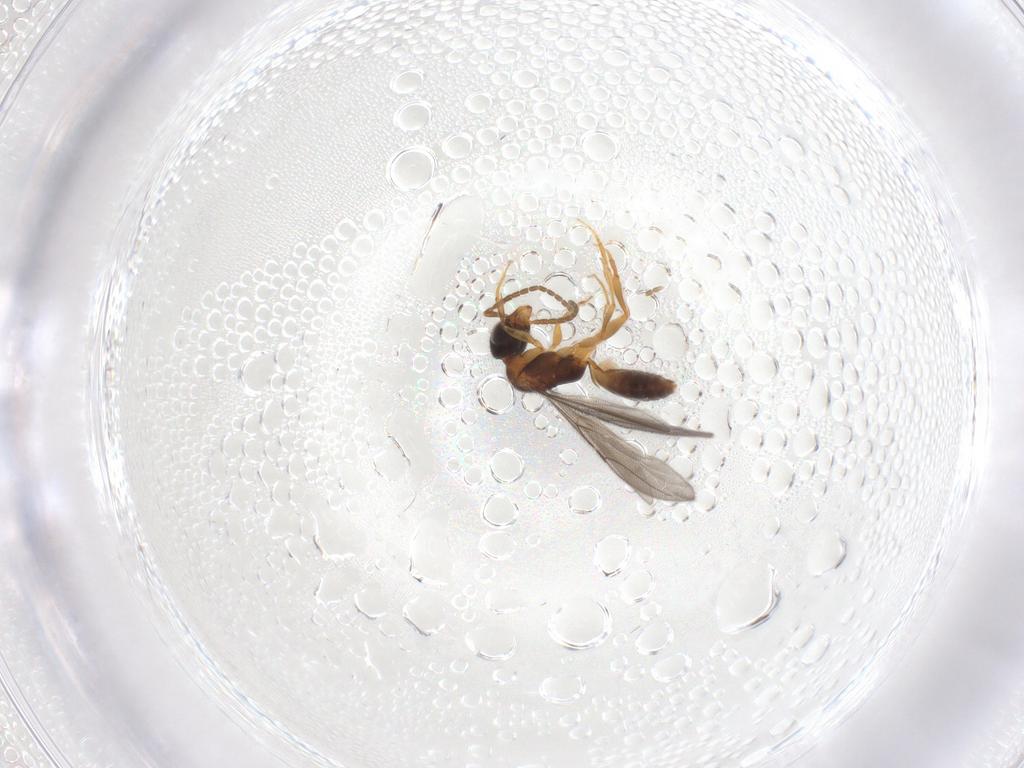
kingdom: Animalia
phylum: Arthropoda
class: Insecta
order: Hymenoptera
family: Bethylidae
